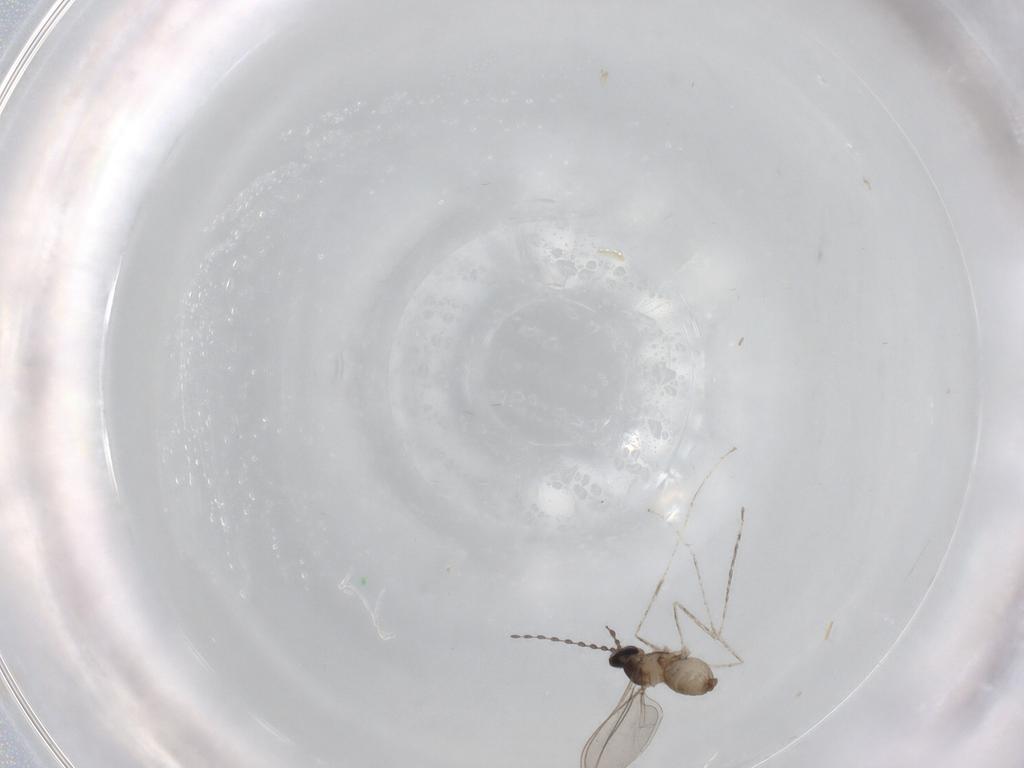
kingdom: Animalia
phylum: Arthropoda
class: Insecta
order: Diptera
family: Cecidomyiidae
